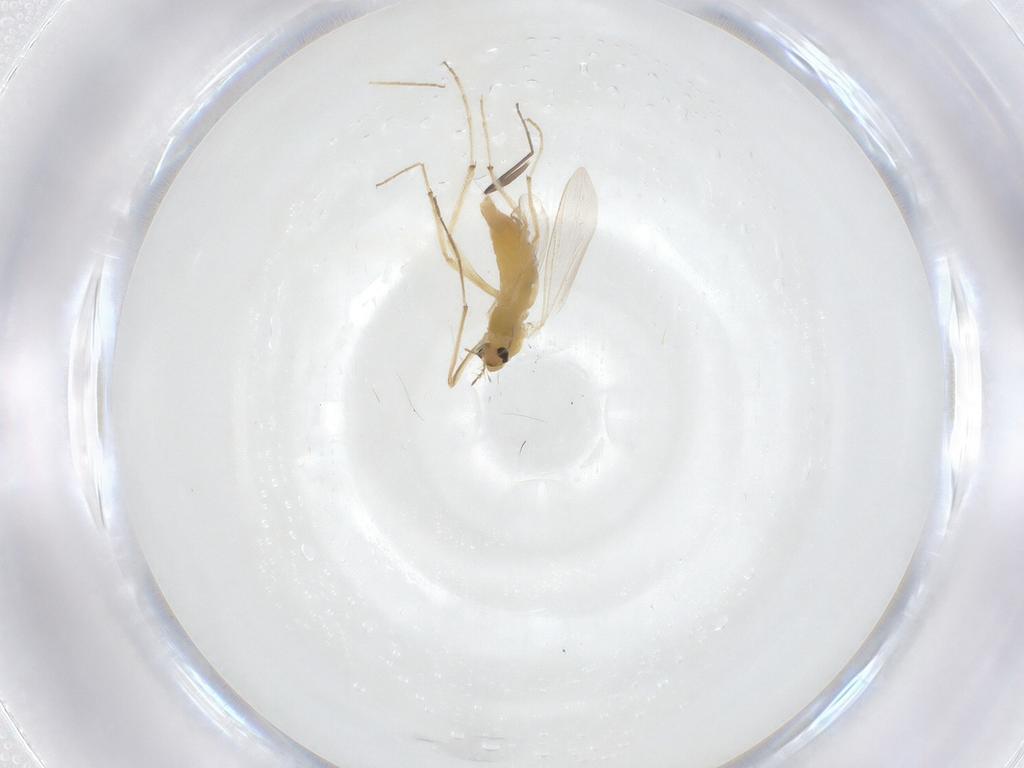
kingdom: Animalia
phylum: Arthropoda
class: Insecta
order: Diptera
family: Chironomidae
